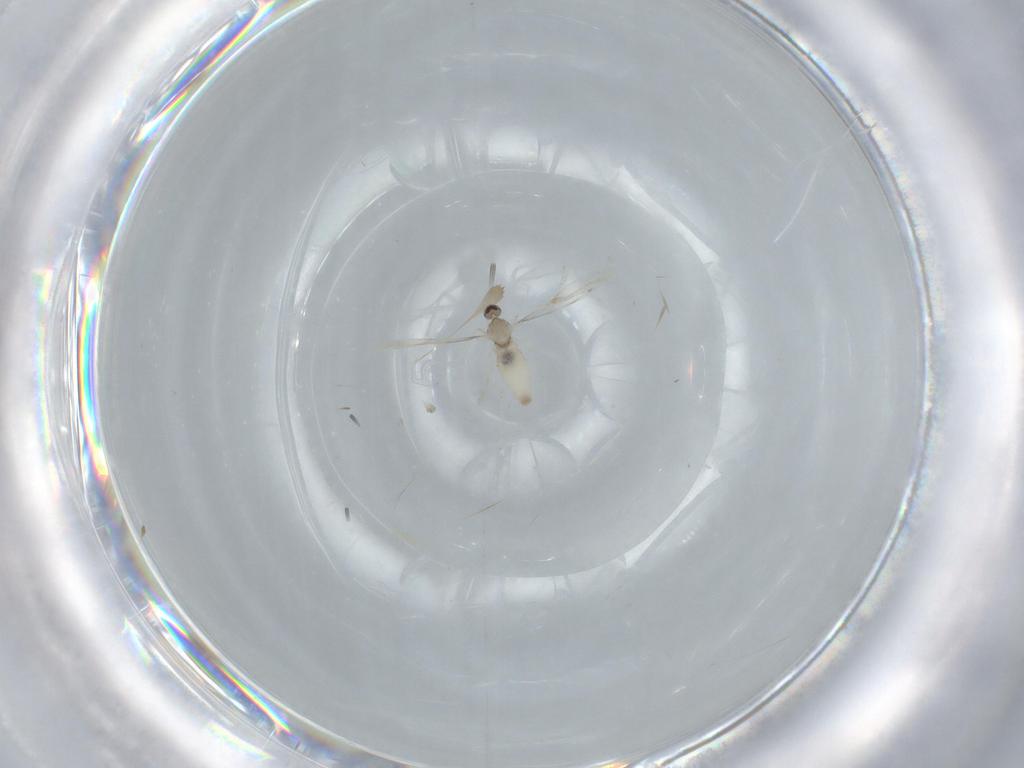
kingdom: Animalia
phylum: Arthropoda
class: Insecta
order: Diptera
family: Cecidomyiidae
